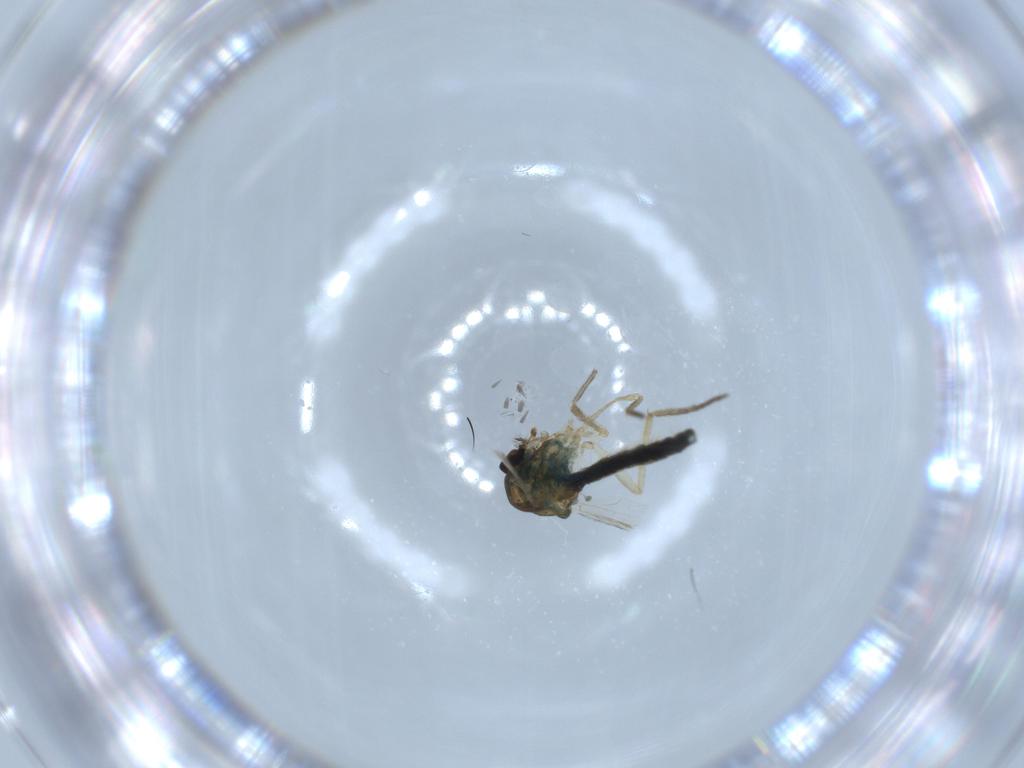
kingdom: Animalia
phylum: Arthropoda
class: Insecta
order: Diptera
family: Ceratopogonidae
